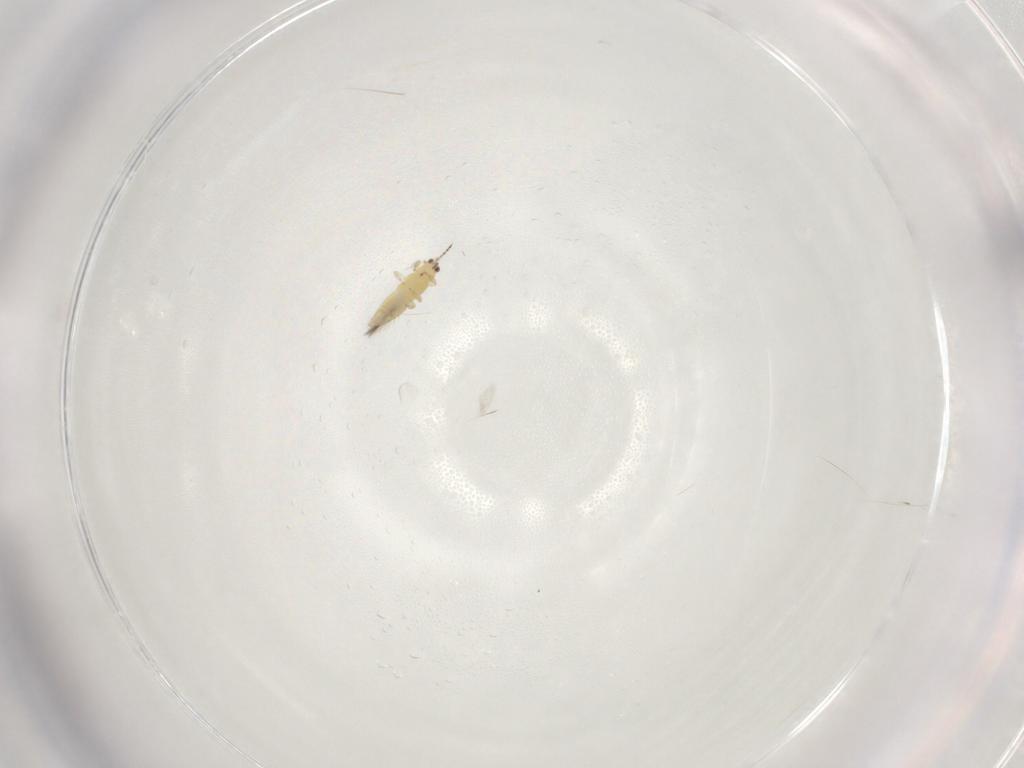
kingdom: Animalia
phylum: Arthropoda
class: Insecta
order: Hymenoptera
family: Trichogrammatidae
